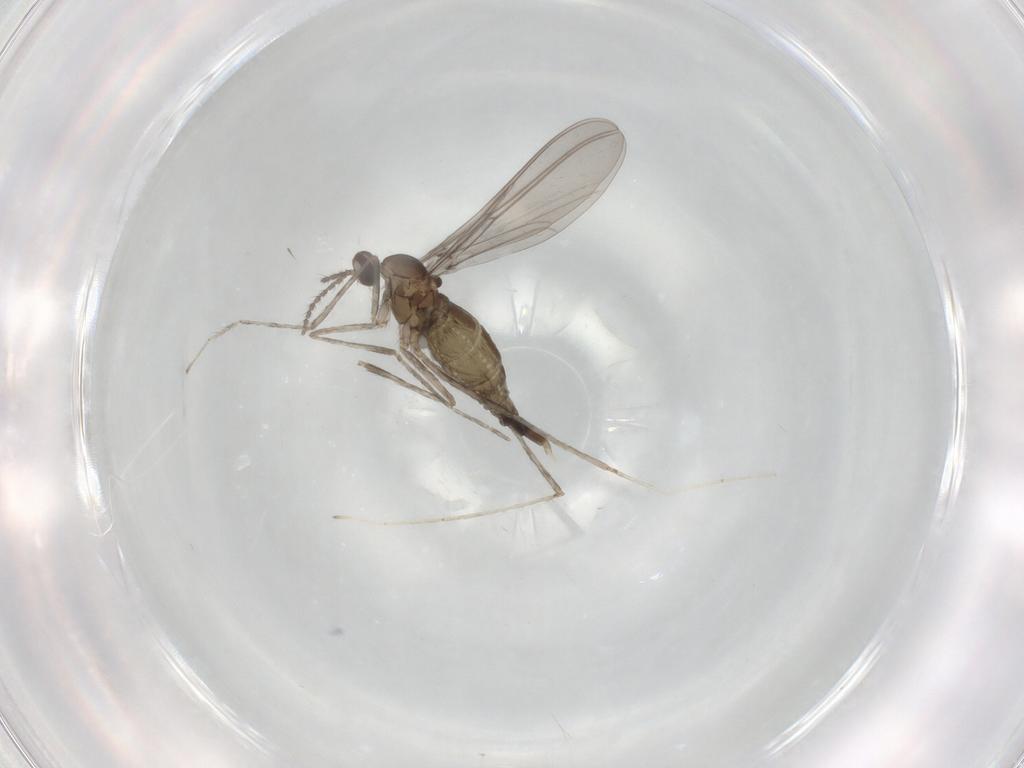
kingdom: Animalia
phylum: Arthropoda
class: Insecta
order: Diptera
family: Cecidomyiidae
